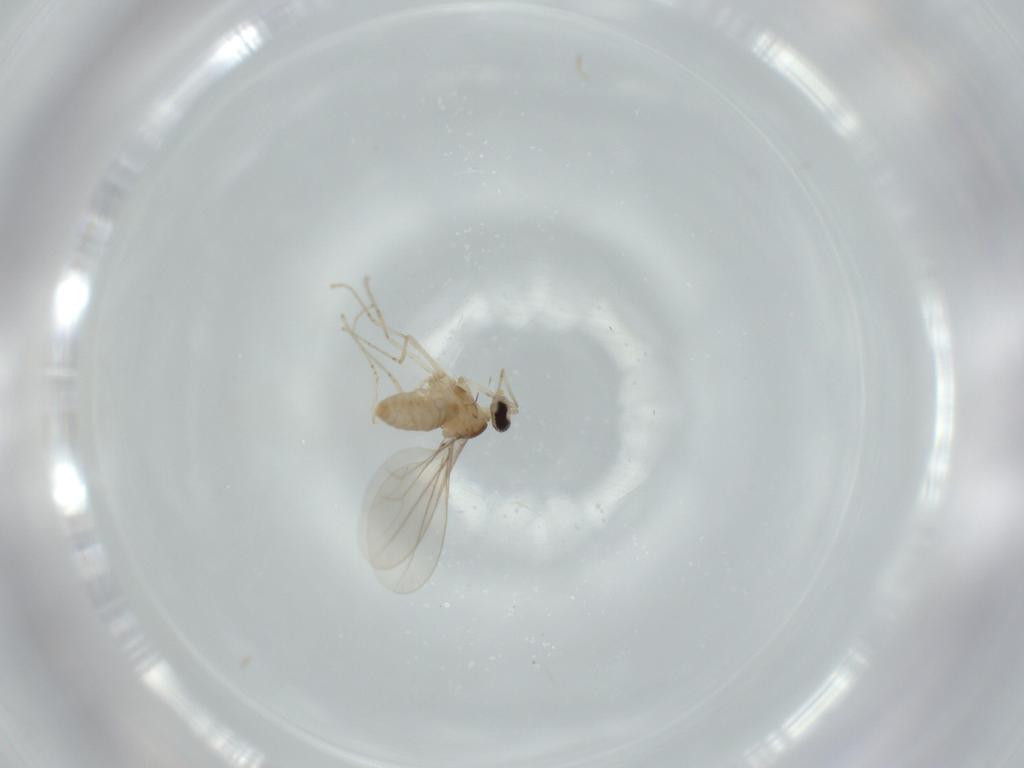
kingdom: Animalia
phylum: Arthropoda
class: Insecta
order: Diptera
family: Cecidomyiidae
